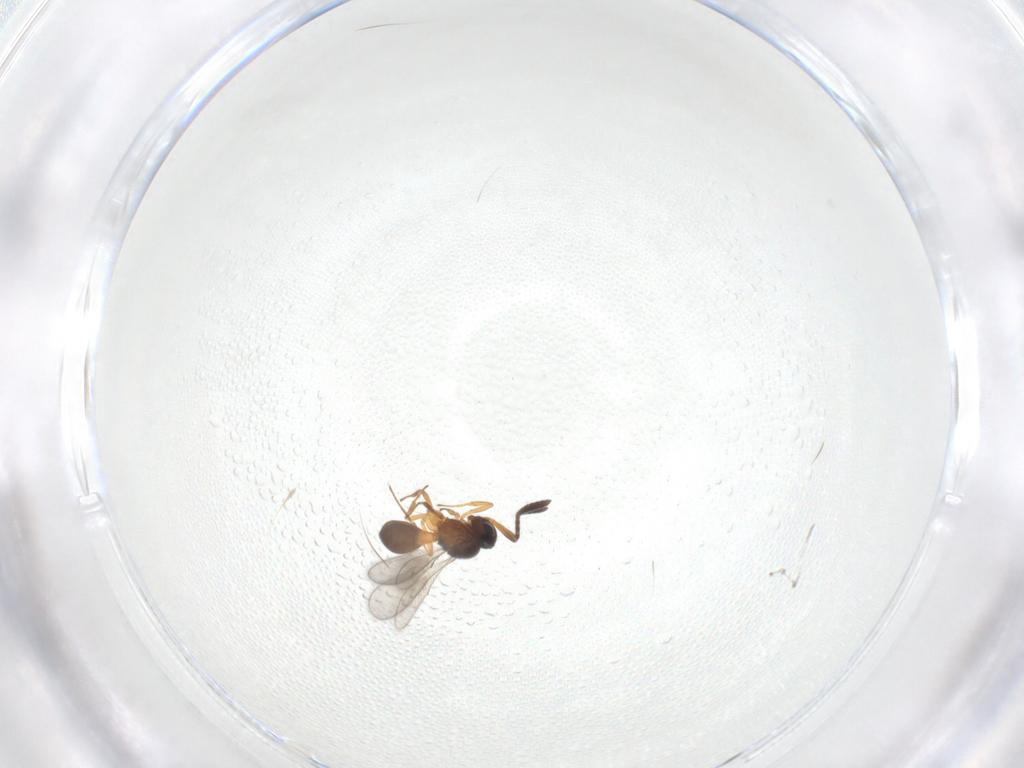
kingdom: Animalia
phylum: Arthropoda
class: Insecta
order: Hymenoptera
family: Scelionidae
